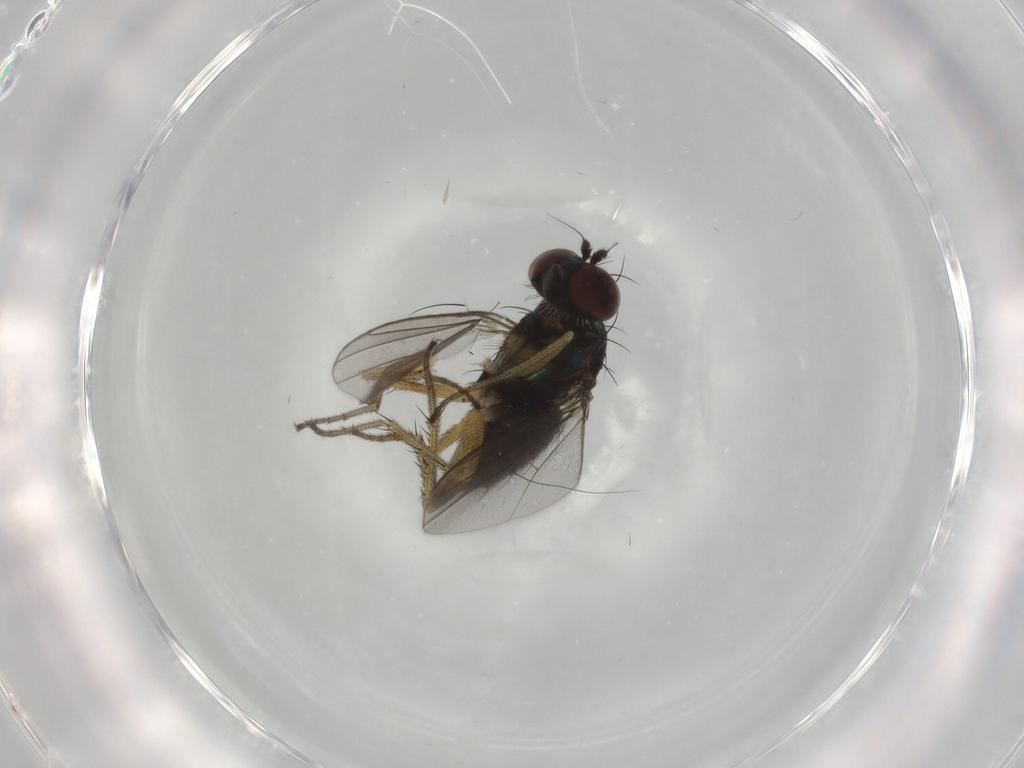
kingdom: Animalia
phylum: Arthropoda
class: Insecta
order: Diptera
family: Dolichopodidae
